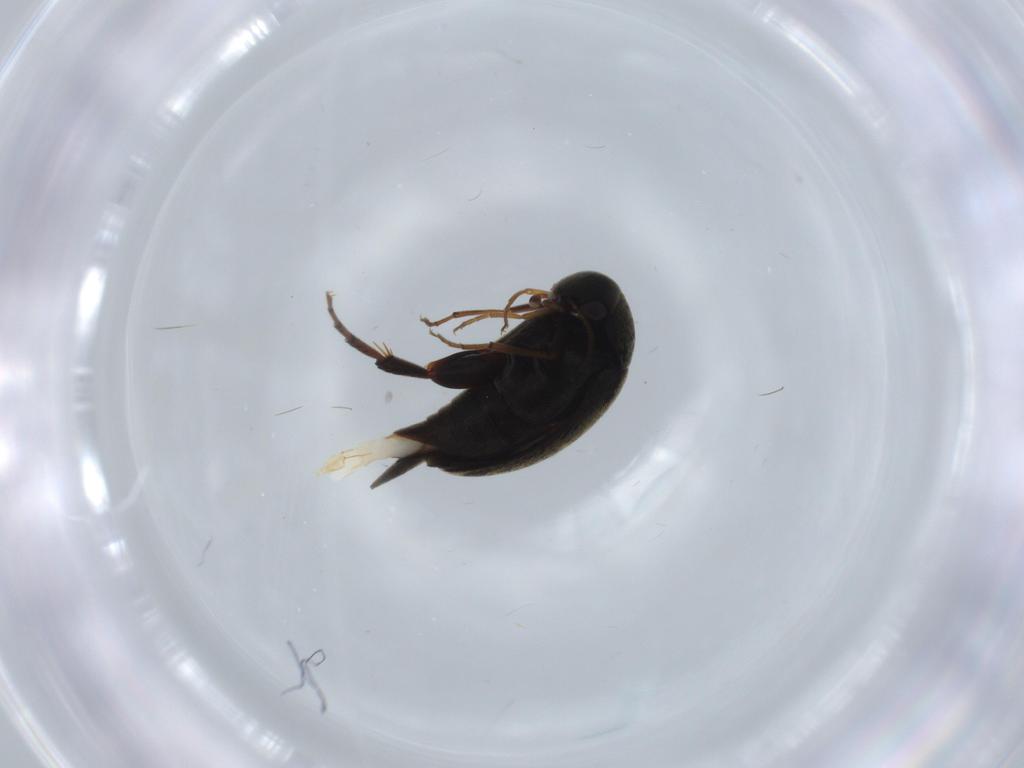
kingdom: Animalia
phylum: Arthropoda
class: Insecta
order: Coleoptera
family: Mordellidae
